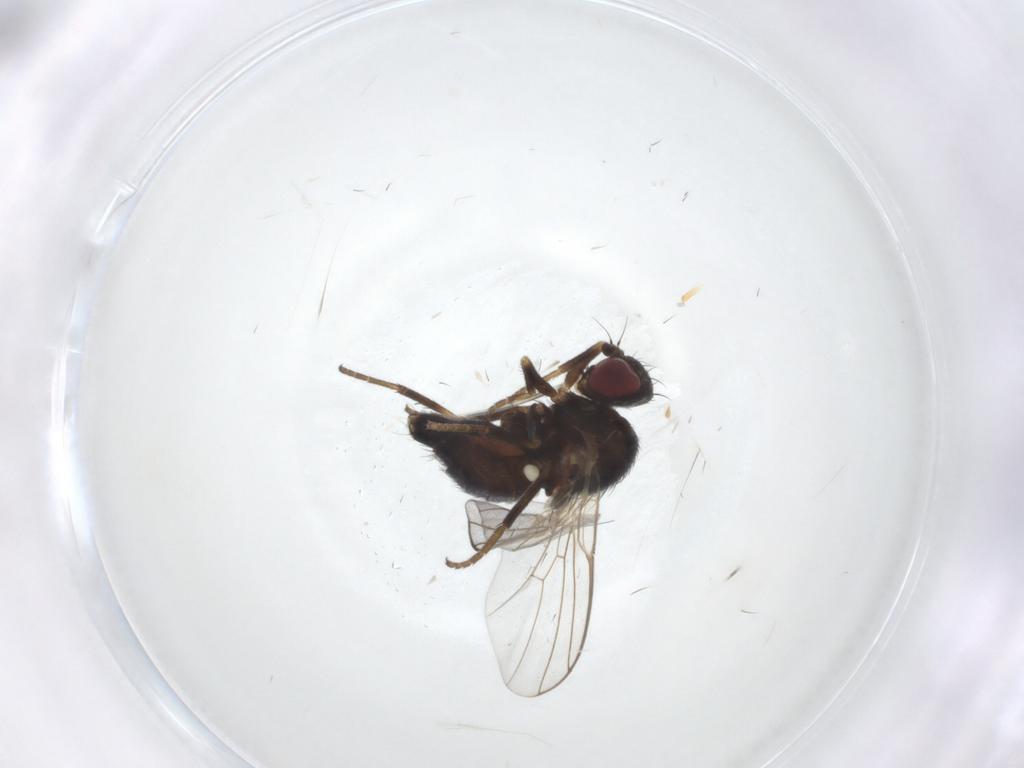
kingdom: Animalia
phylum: Arthropoda
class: Insecta
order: Diptera
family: Agromyzidae
